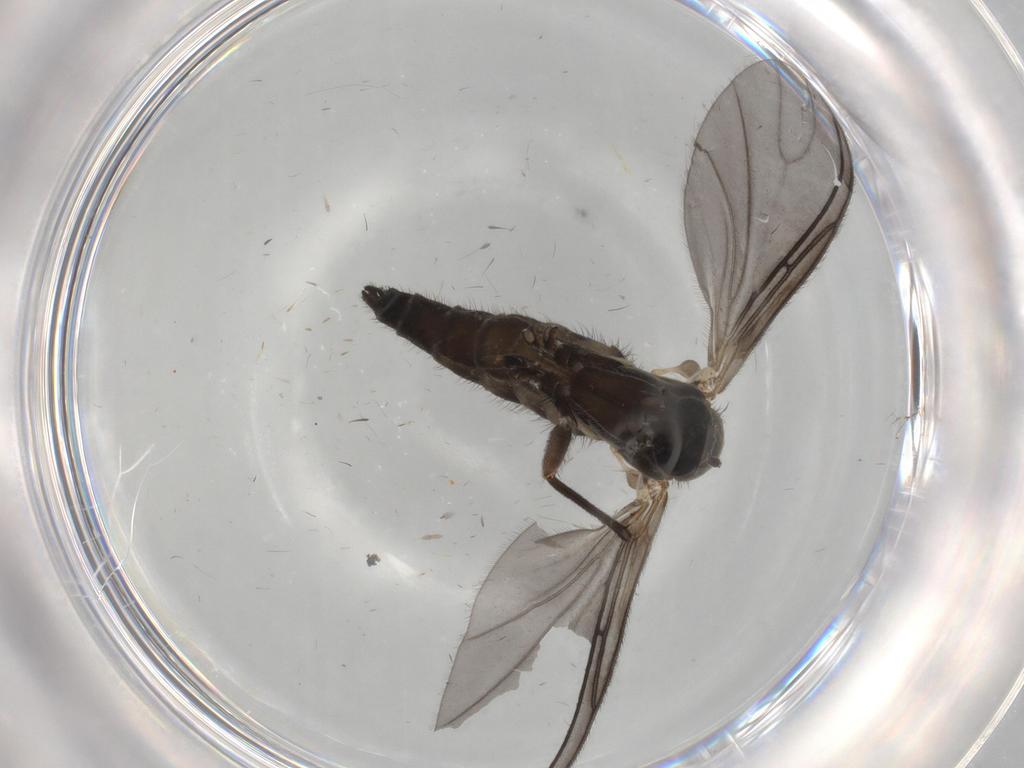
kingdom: Animalia
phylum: Arthropoda
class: Insecta
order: Diptera
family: Sciaridae
